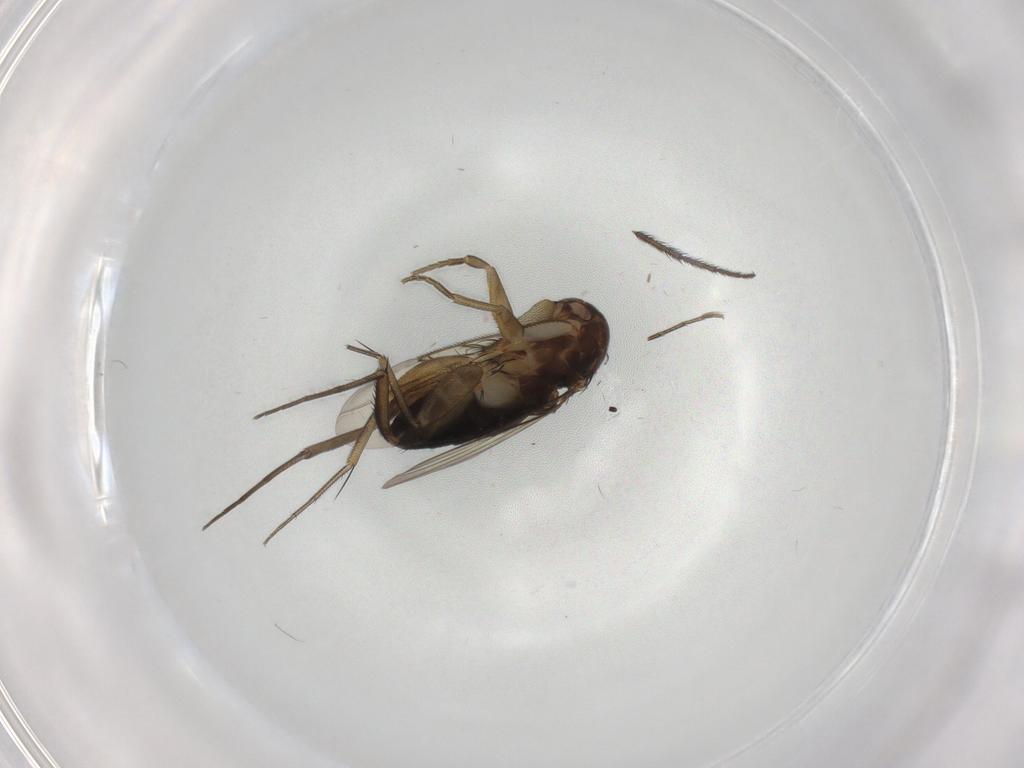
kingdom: Animalia
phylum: Arthropoda
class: Insecta
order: Diptera
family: Phoridae
